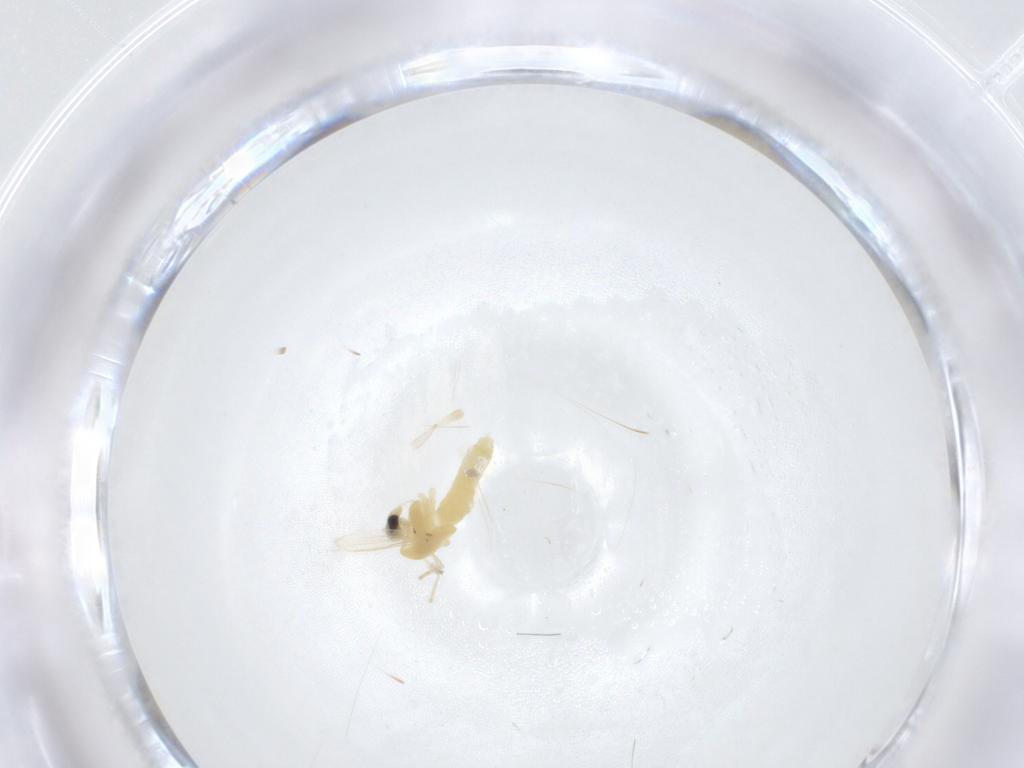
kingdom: Animalia
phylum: Arthropoda
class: Insecta
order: Diptera
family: Chironomidae
